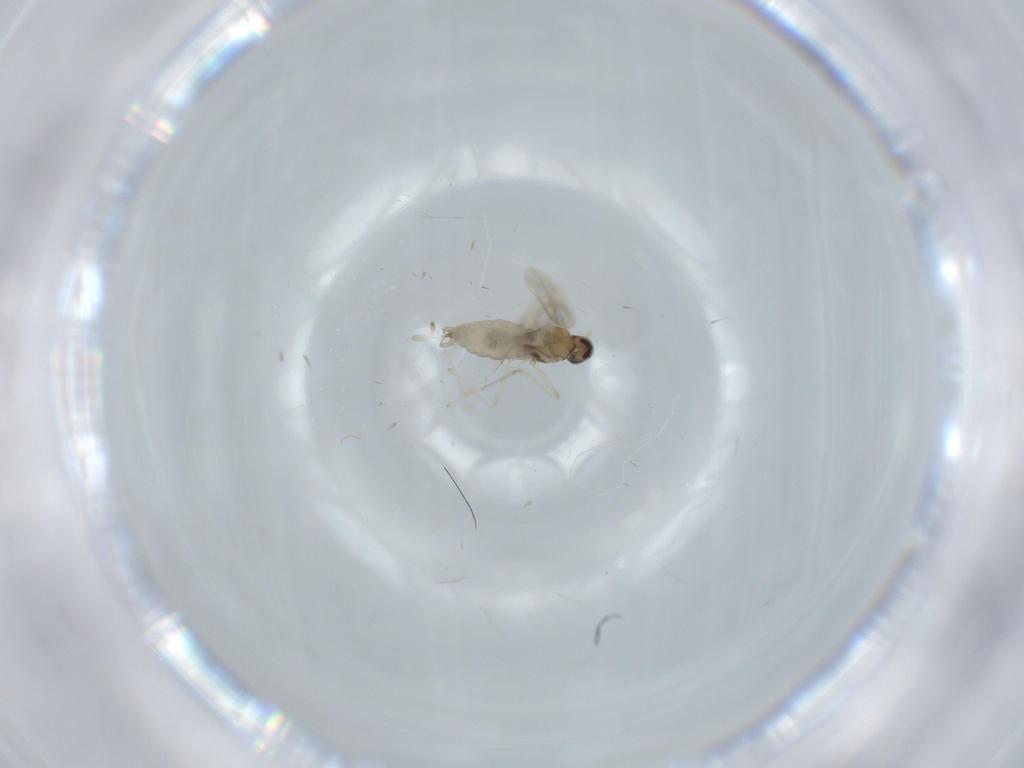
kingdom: Animalia
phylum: Arthropoda
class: Insecta
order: Diptera
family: Cecidomyiidae
